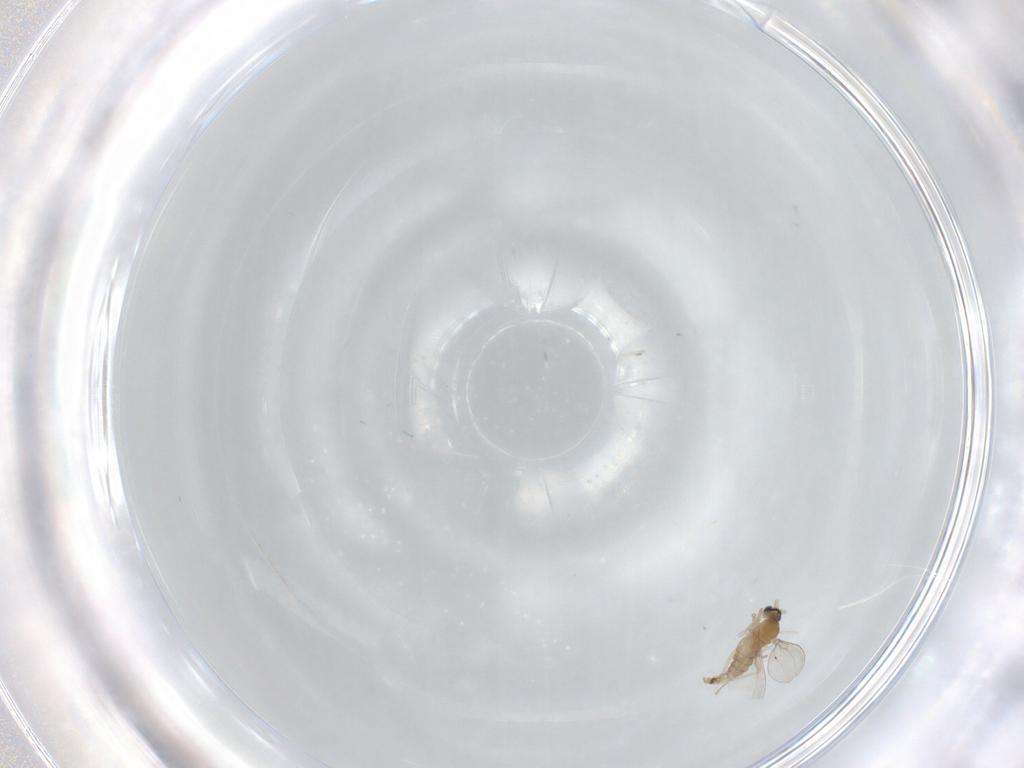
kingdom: Animalia
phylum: Arthropoda
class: Insecta
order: Diptera
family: Cecidomyiidae
